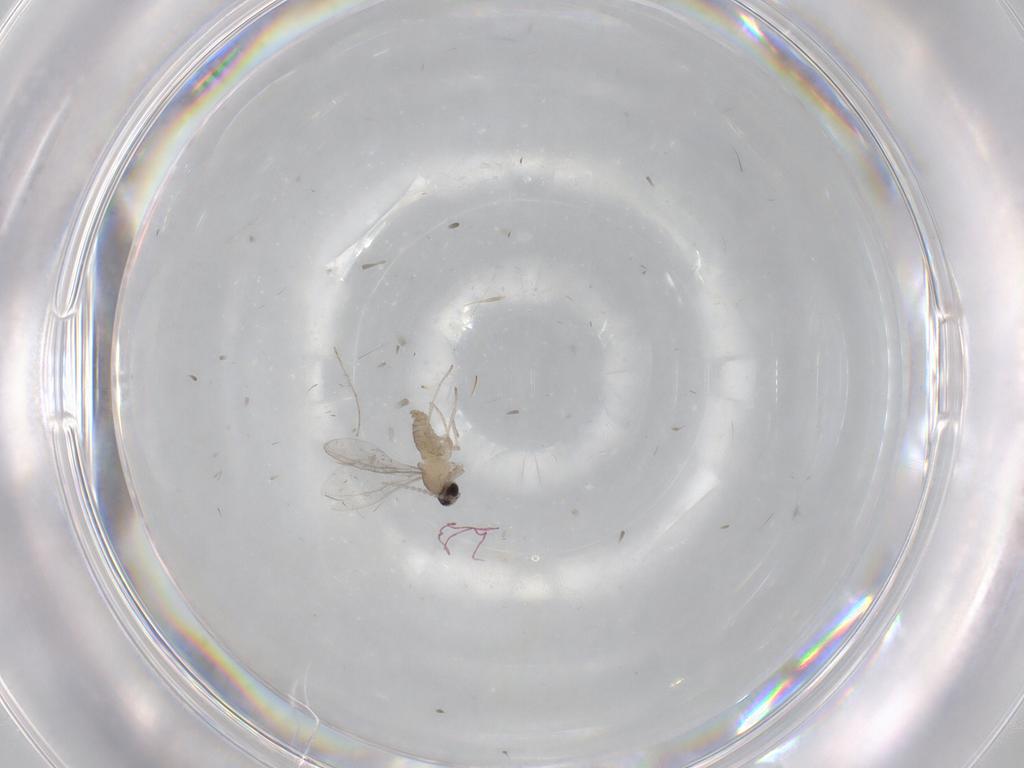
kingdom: Animalia
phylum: Arthropoda
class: Insecta
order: Diptera
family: Cecidomyiidae
